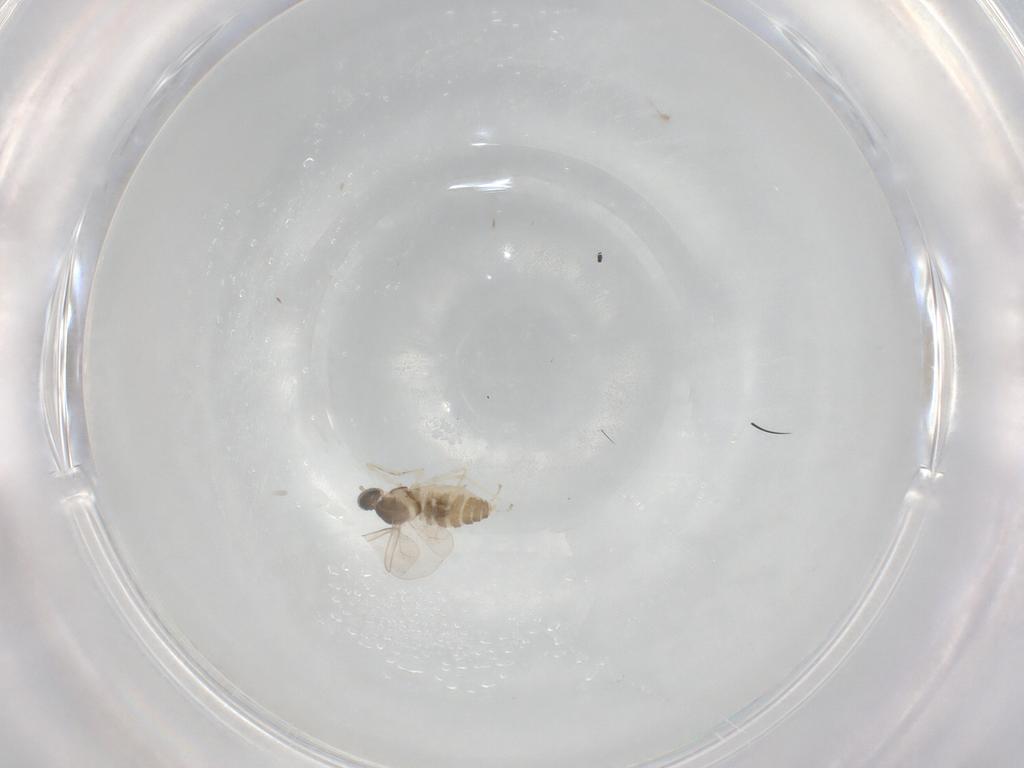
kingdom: Animalia
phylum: Arthropoda
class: Insecta
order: Diptera
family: Cecidomyiidae
